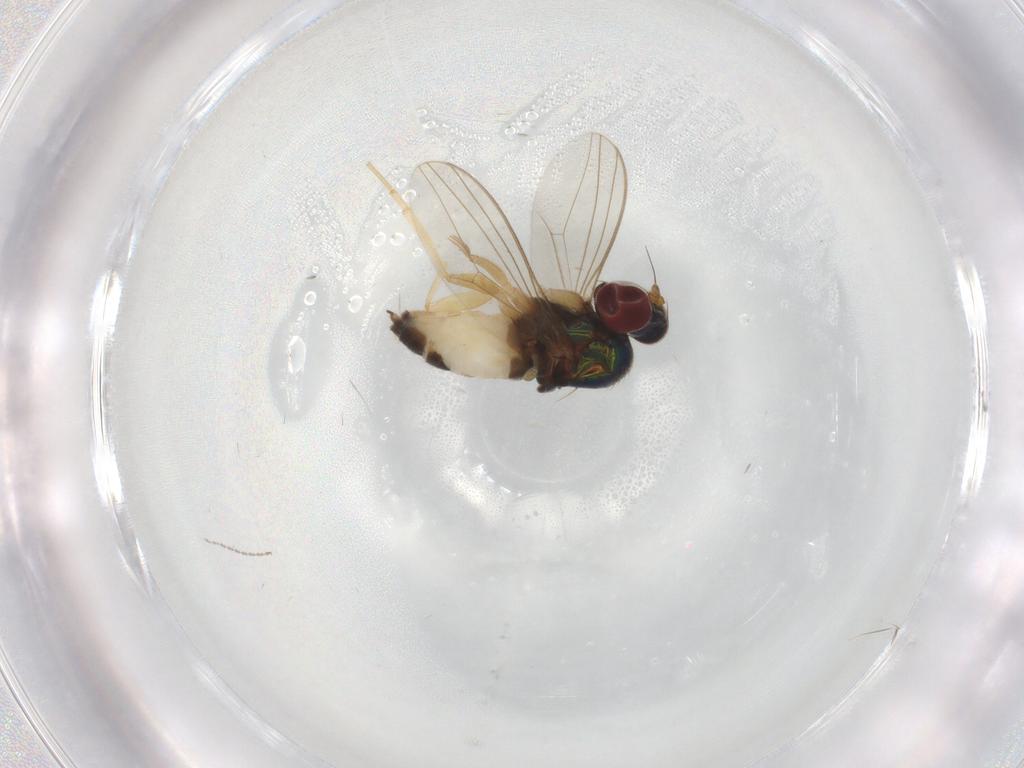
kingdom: Animalia
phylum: Arthropoda
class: Insecta
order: Diptera
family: Dolichopodidae
